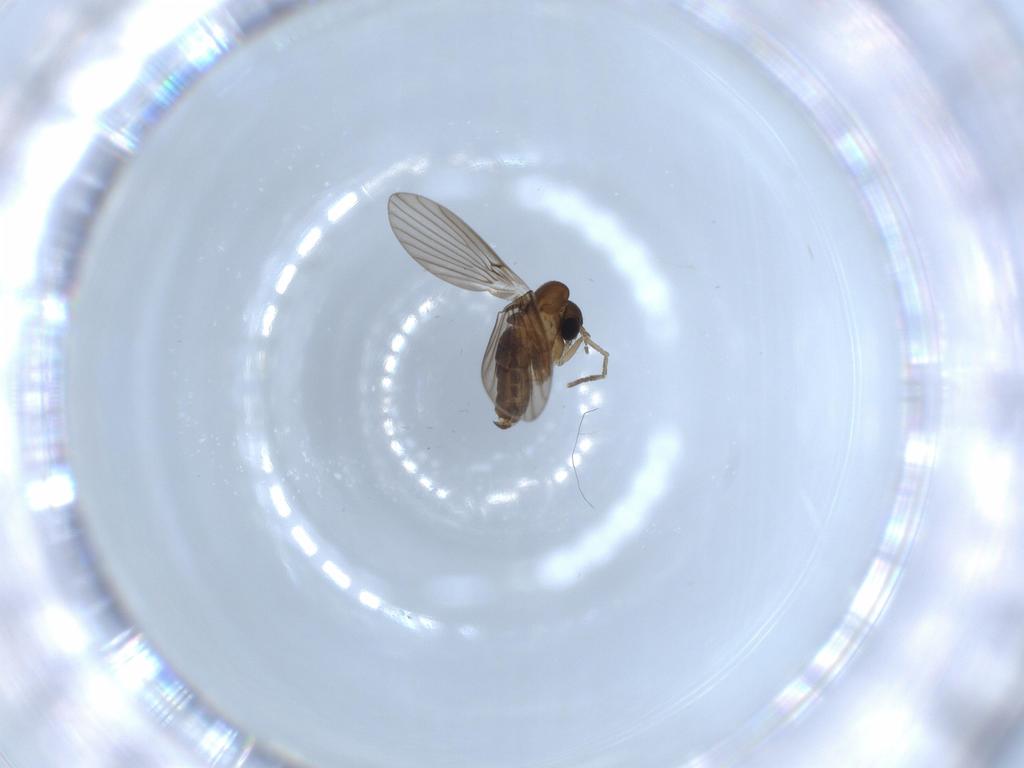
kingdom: Animalia
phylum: Arthropoda
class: Insecta
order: Diptera
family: Psychodidae
